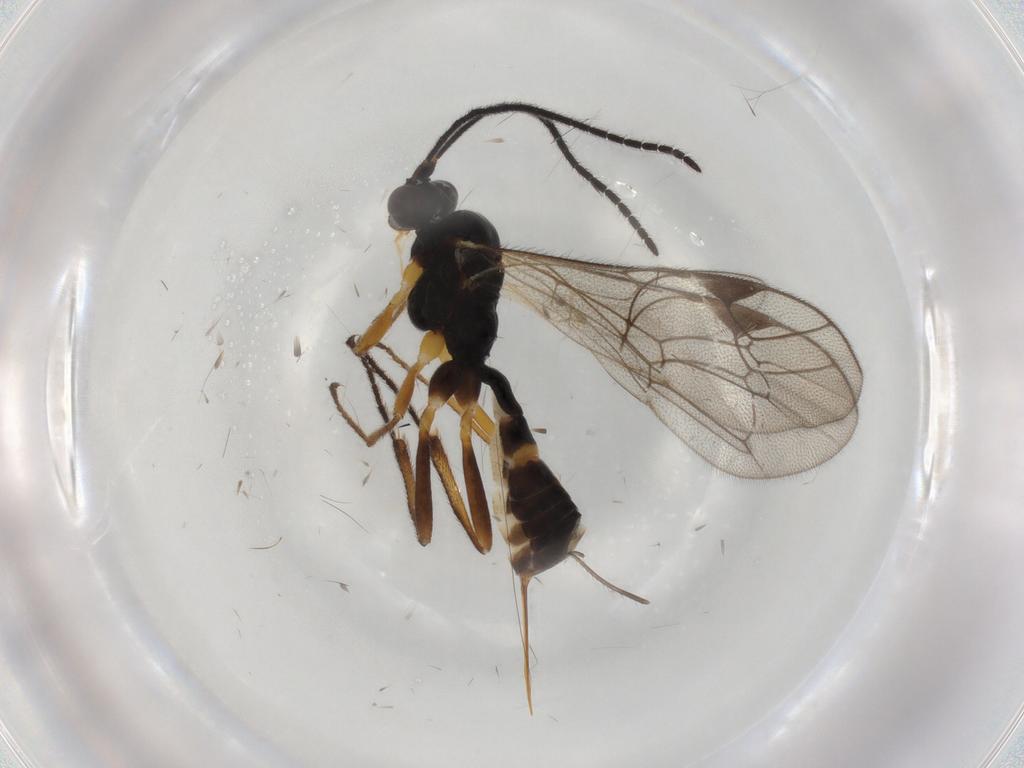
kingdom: Animalia
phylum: Arthropoda
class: Insecta
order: Hymenoptera
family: Ichneumonidae
